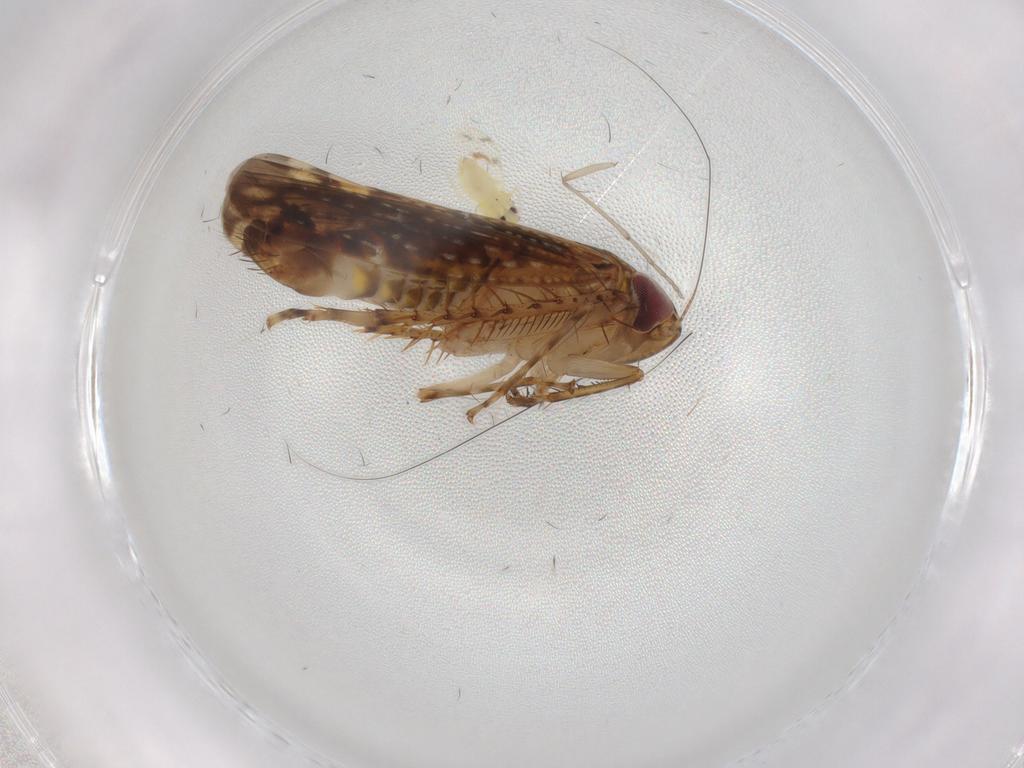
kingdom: Animalia
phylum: Arthropoda
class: Insecta
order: Hemiptera
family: Aleyrodidae
